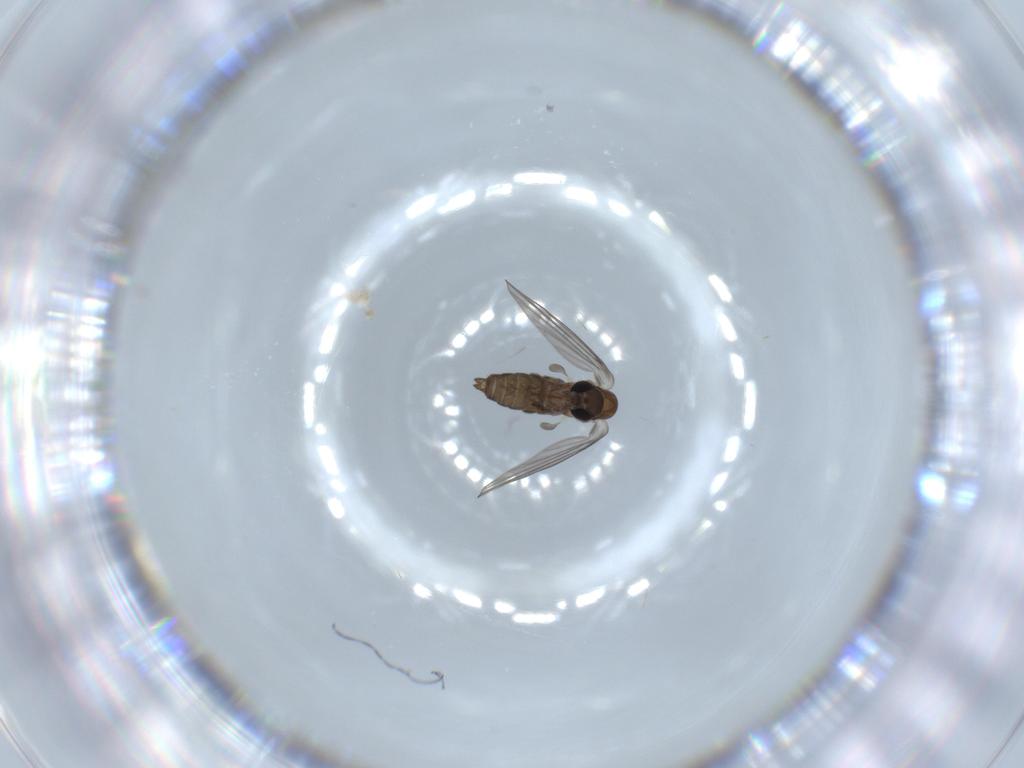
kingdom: Animalia
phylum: Arthropoda
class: Insecta
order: Diptera
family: Psychodidae
